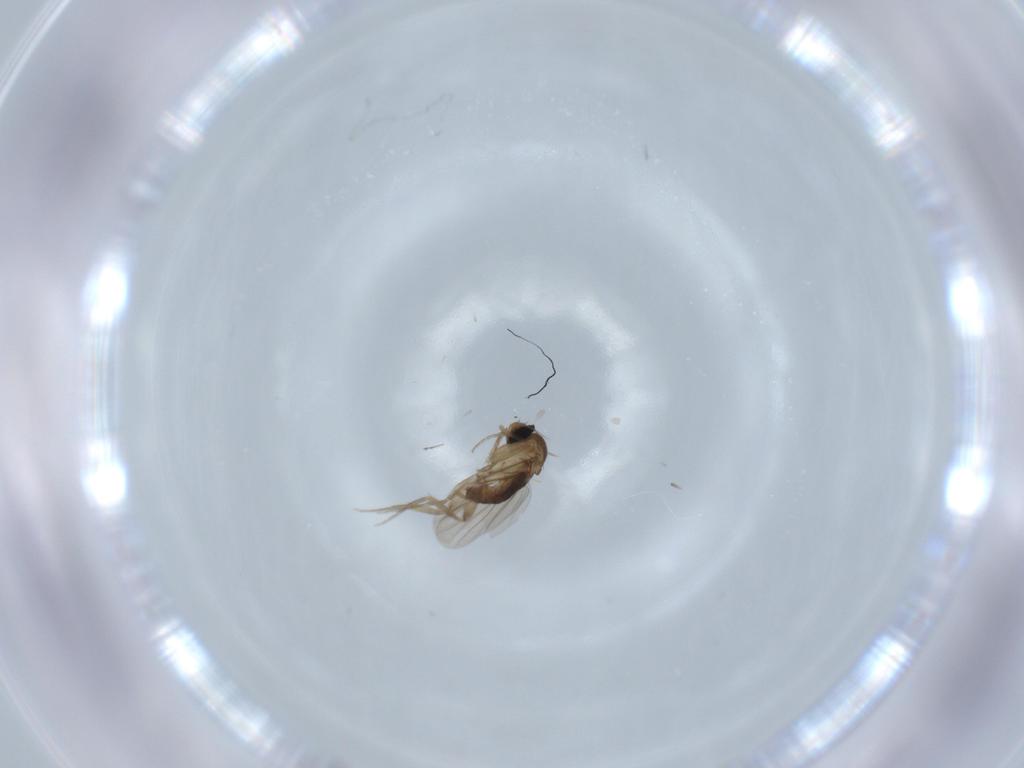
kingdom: Animalia
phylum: Arthropoda
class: Insecta
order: Diptera
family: Phoridae
